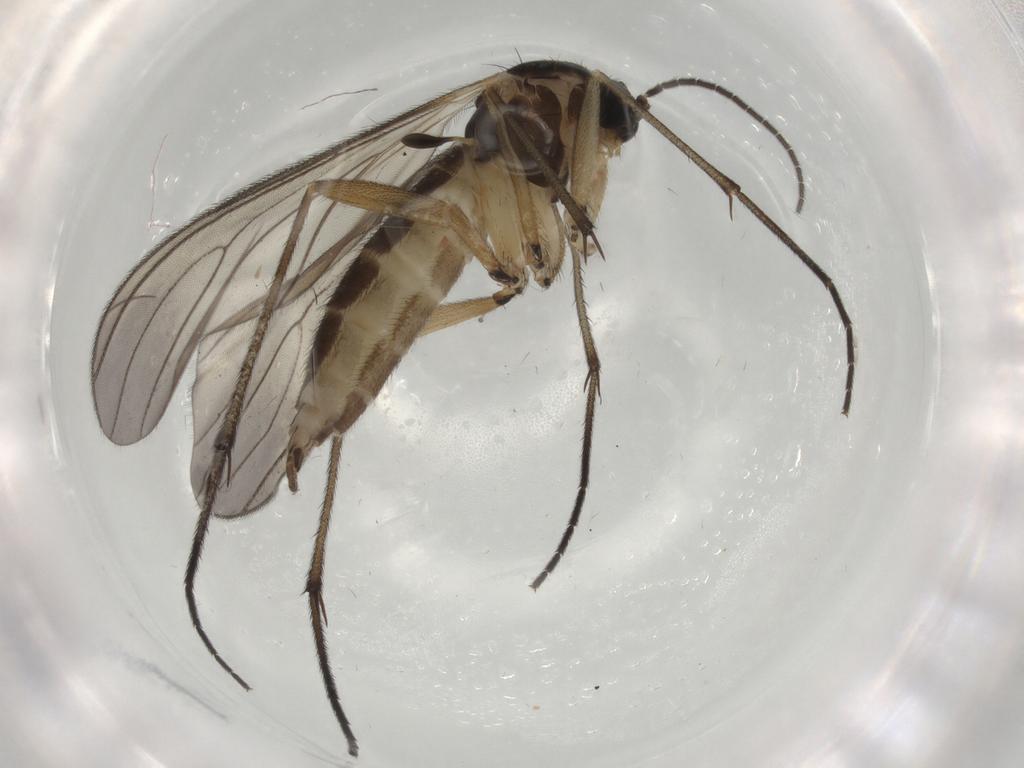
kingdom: Animalia
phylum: Arthropoda
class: Insecta
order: Diptera
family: Sciaridae
